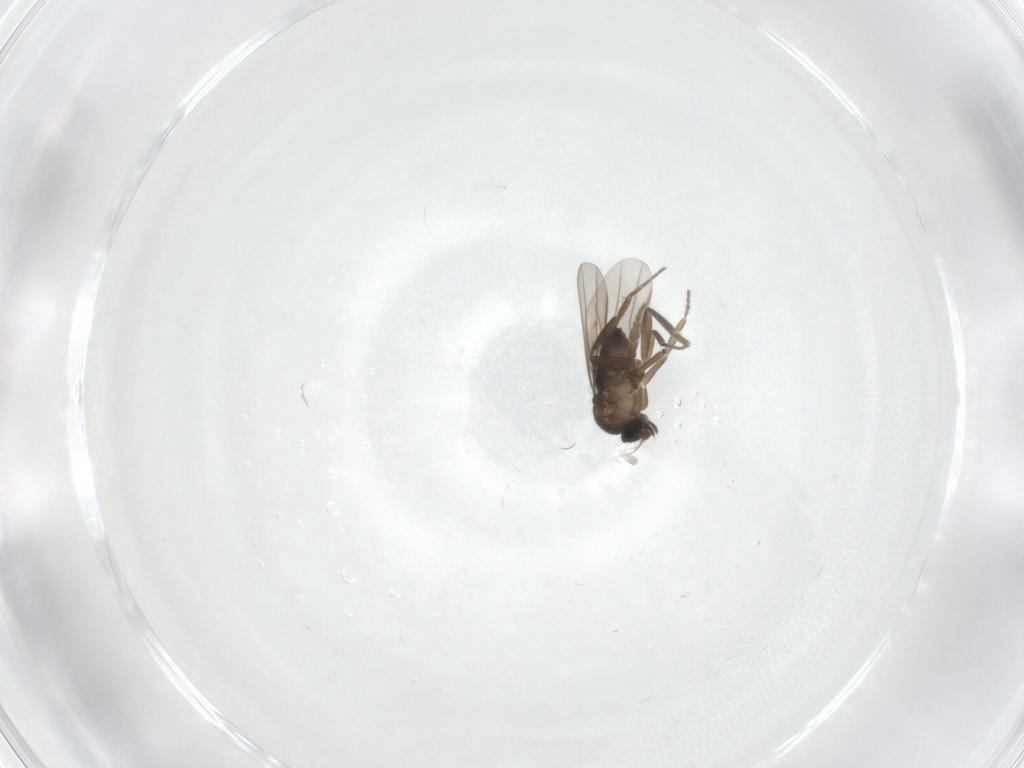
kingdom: Animalia
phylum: Arthropoda
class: Insecta
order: Diptera
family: Phoridae
